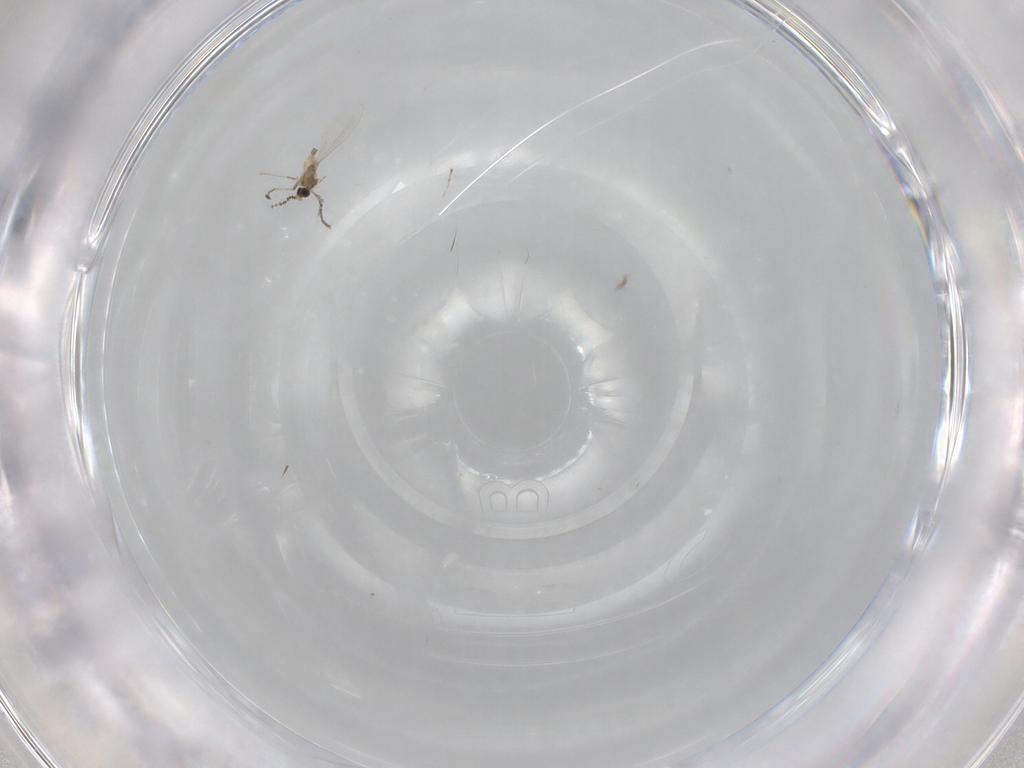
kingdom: Animalia
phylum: Arthropoda
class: Insecta
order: Diptera
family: Cecidomyiidae
